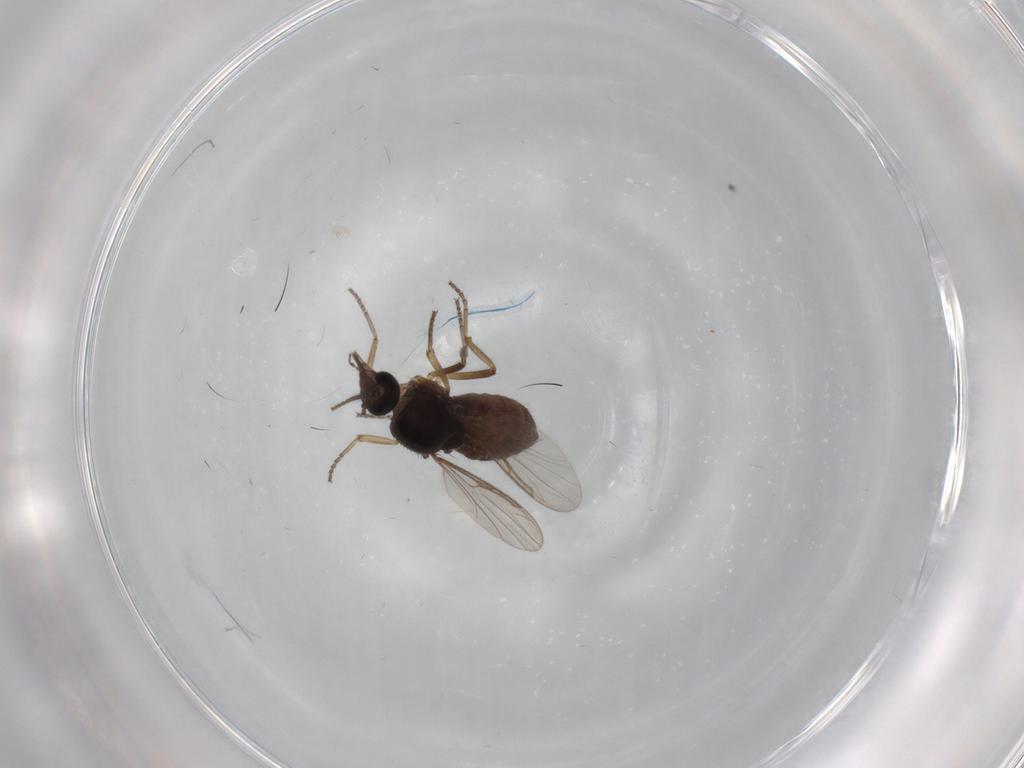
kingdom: Animalia
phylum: Arthropoda
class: Insecta
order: Diptera
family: Ceratopogonidae
